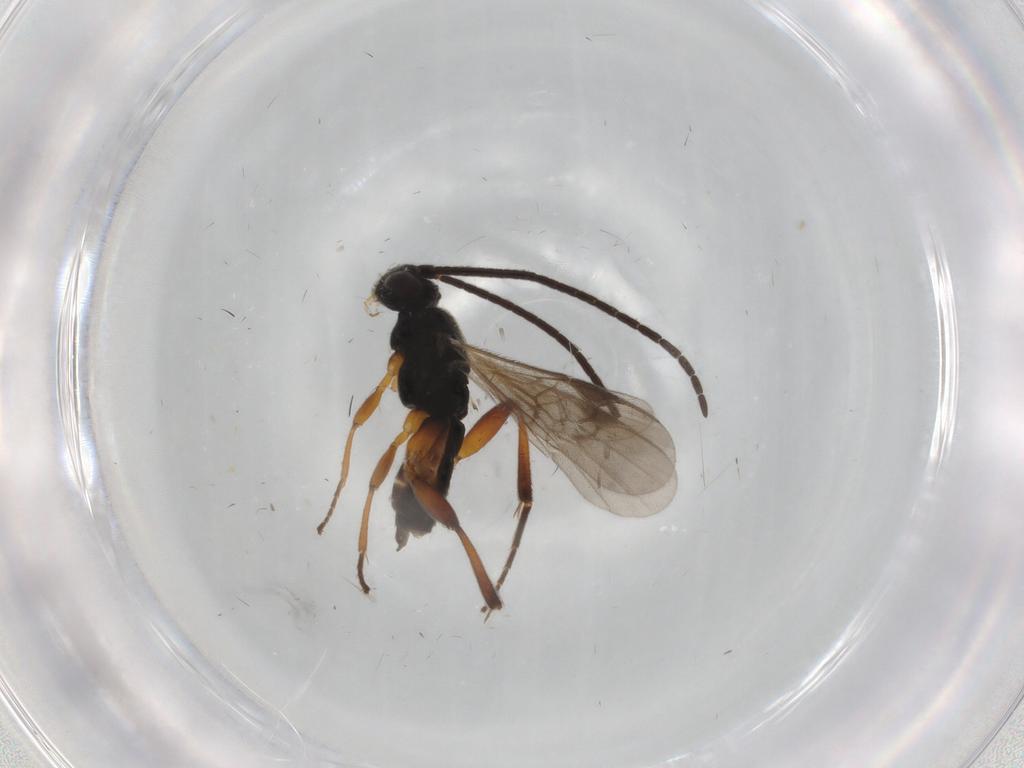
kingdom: Animalia
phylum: Arthropoda
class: Insecta
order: Hymenoptera
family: Braconidae
